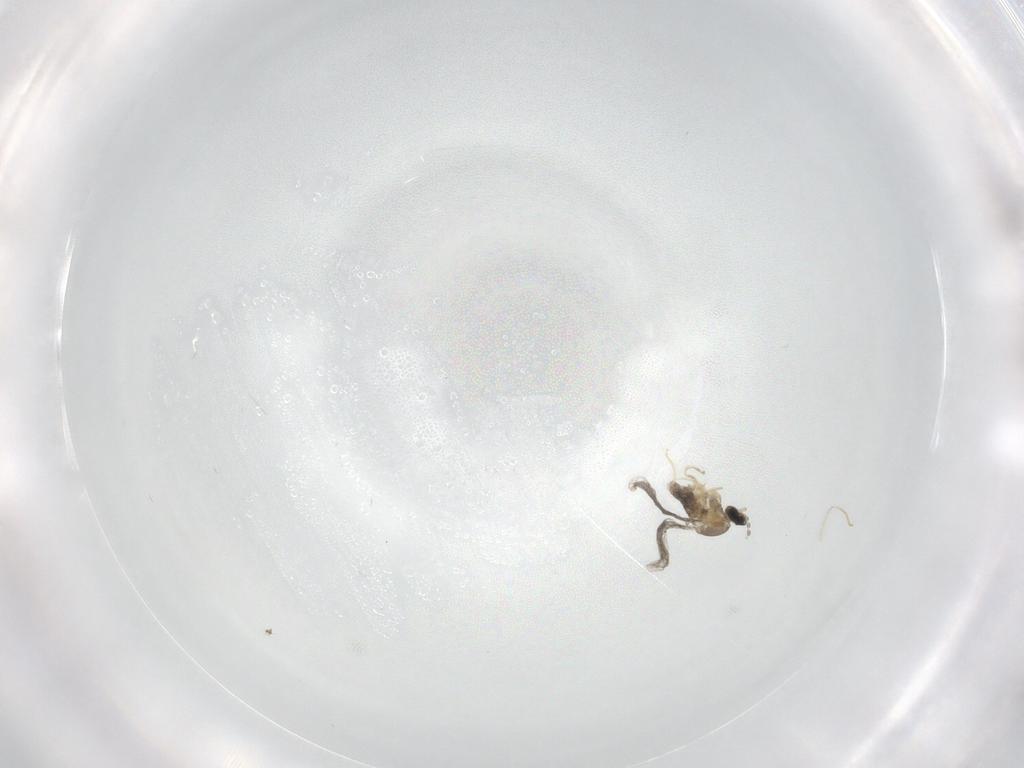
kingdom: Animalia
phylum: Arthropoda
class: Insecta
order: Diptera
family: Cecidomyiidae
